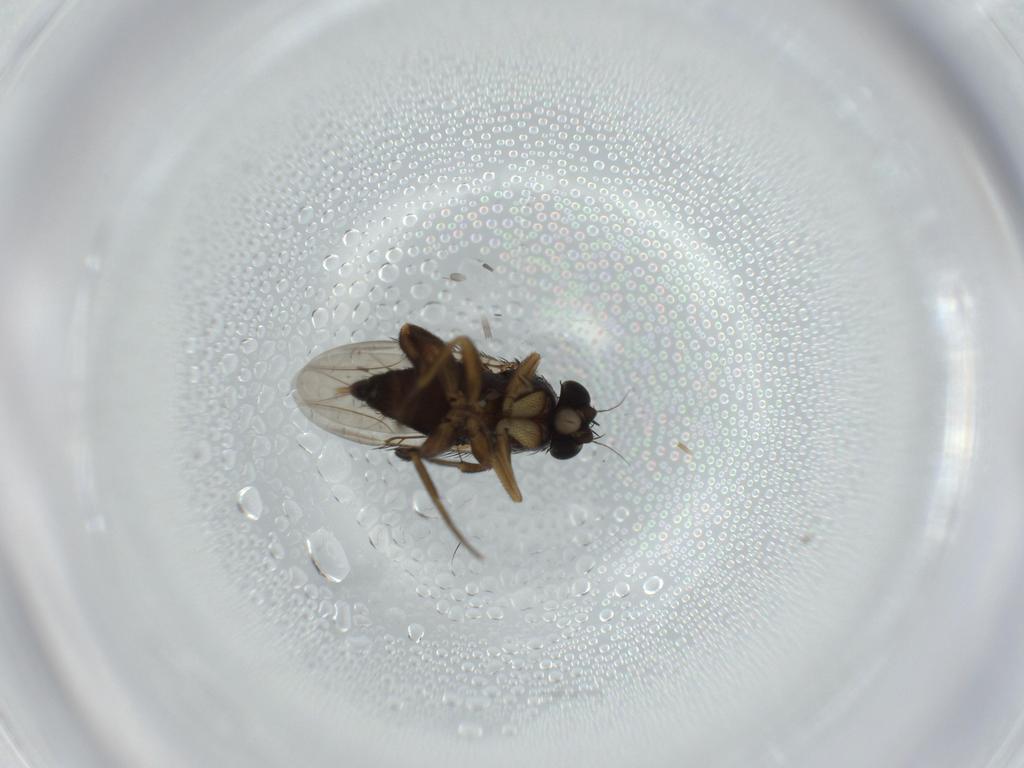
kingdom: Animalia
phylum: Arthropoda
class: Insecta
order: Diptera
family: Phoridae
